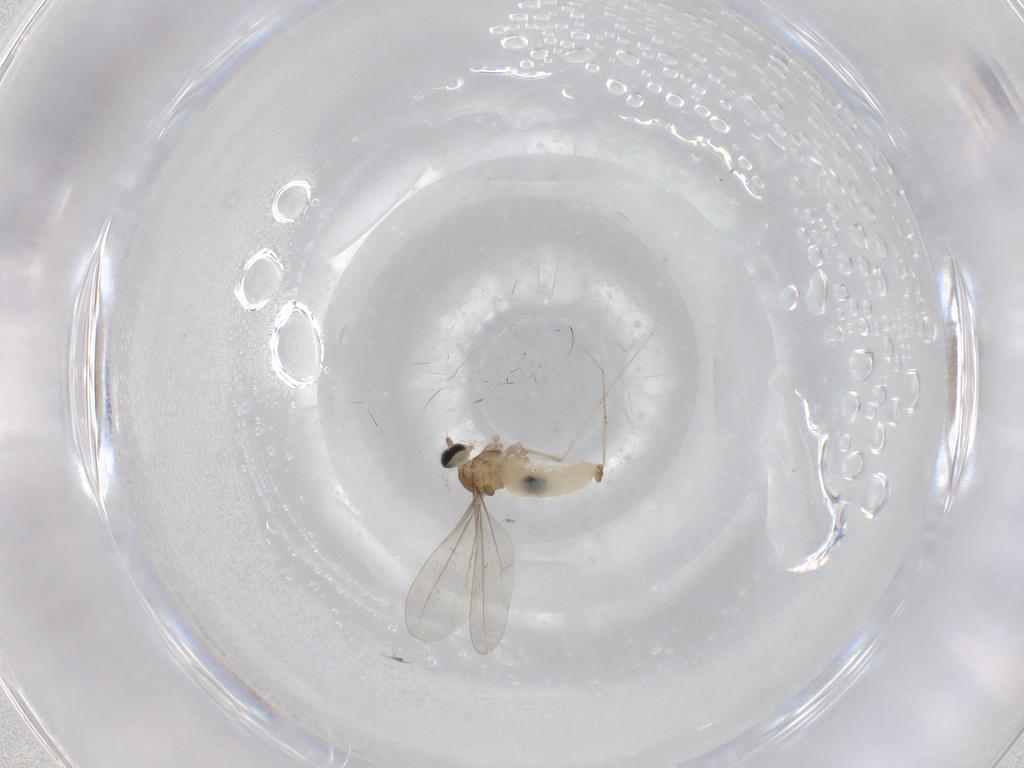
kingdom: Animalia
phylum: Arthropoda
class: Insecta
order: Diptera
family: Cecidomyiidae
